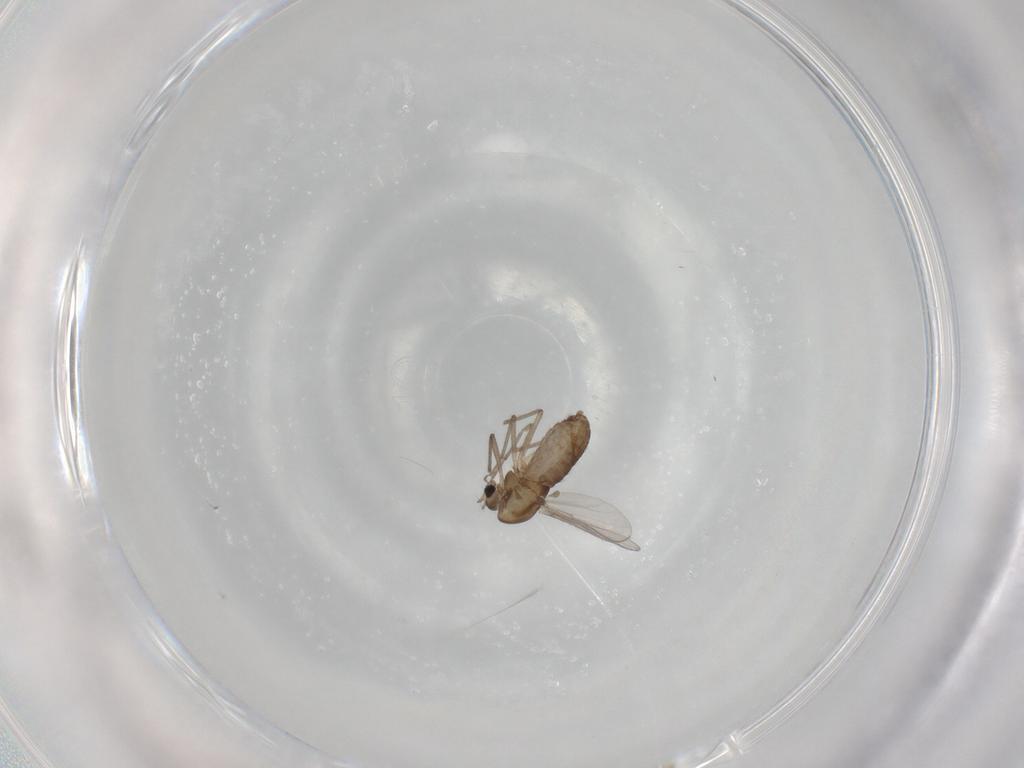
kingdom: Animalia
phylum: Arthropoda
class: Insecta
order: Diptera
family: Chironomidae
